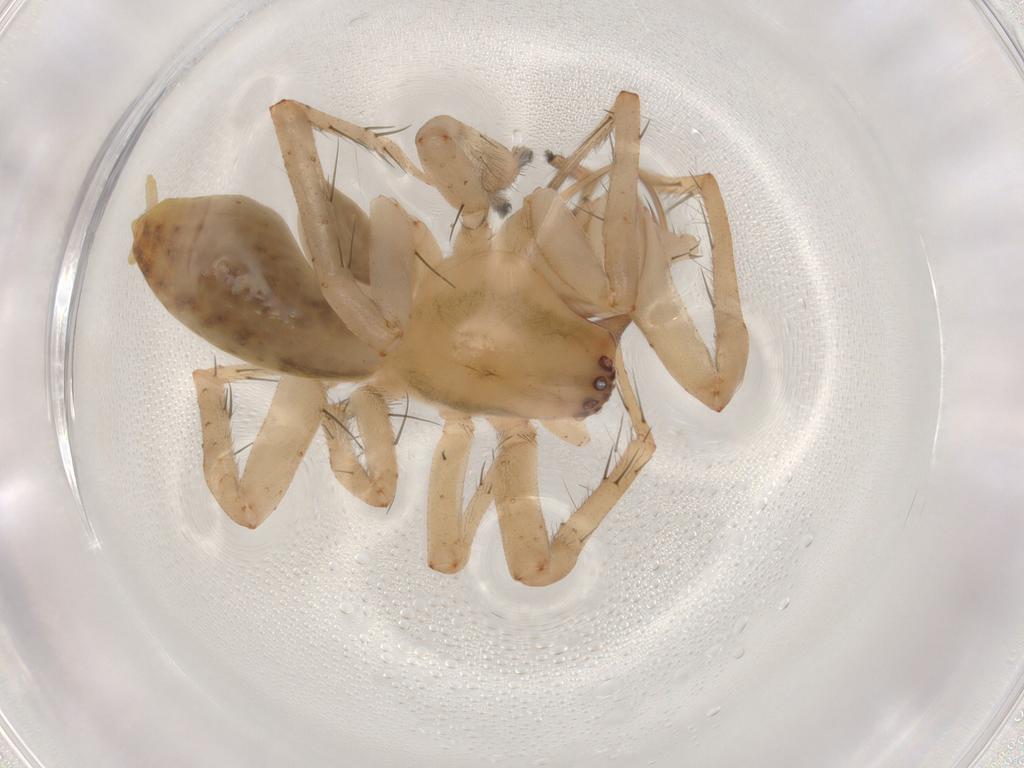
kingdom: Animalia
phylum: Arthropoda
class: Arachnida
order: Araneae
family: Anyphaenidae
